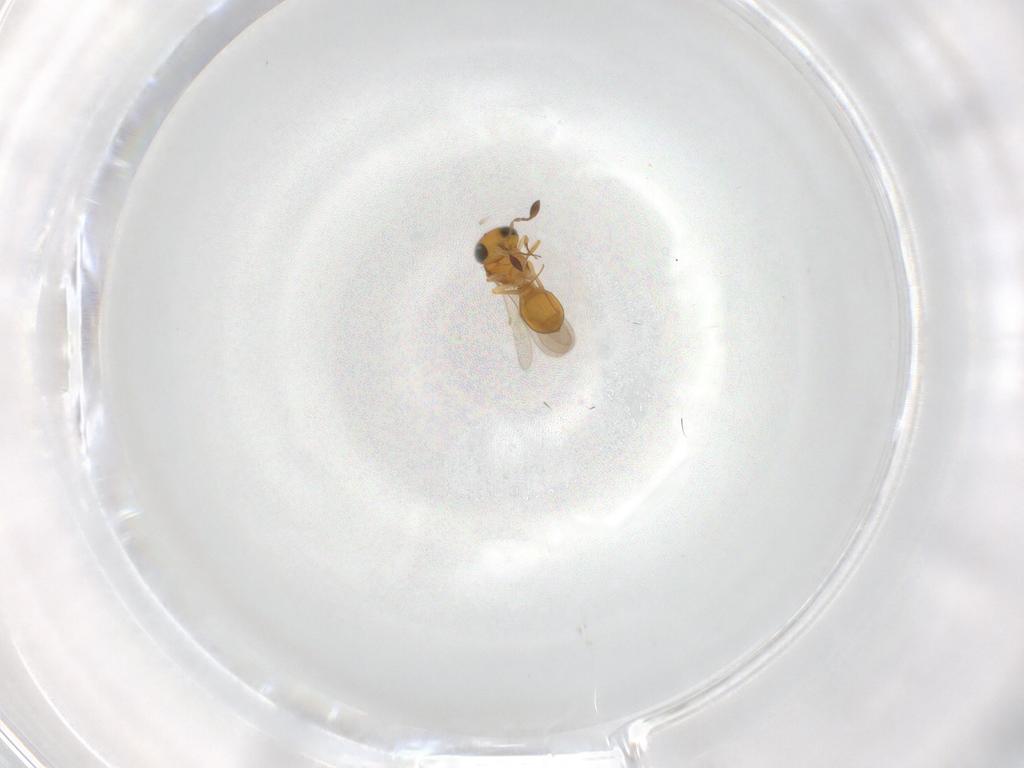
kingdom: Animalia
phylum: Arthropoda
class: Insecta
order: Hymenoptera
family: Scelionidae
